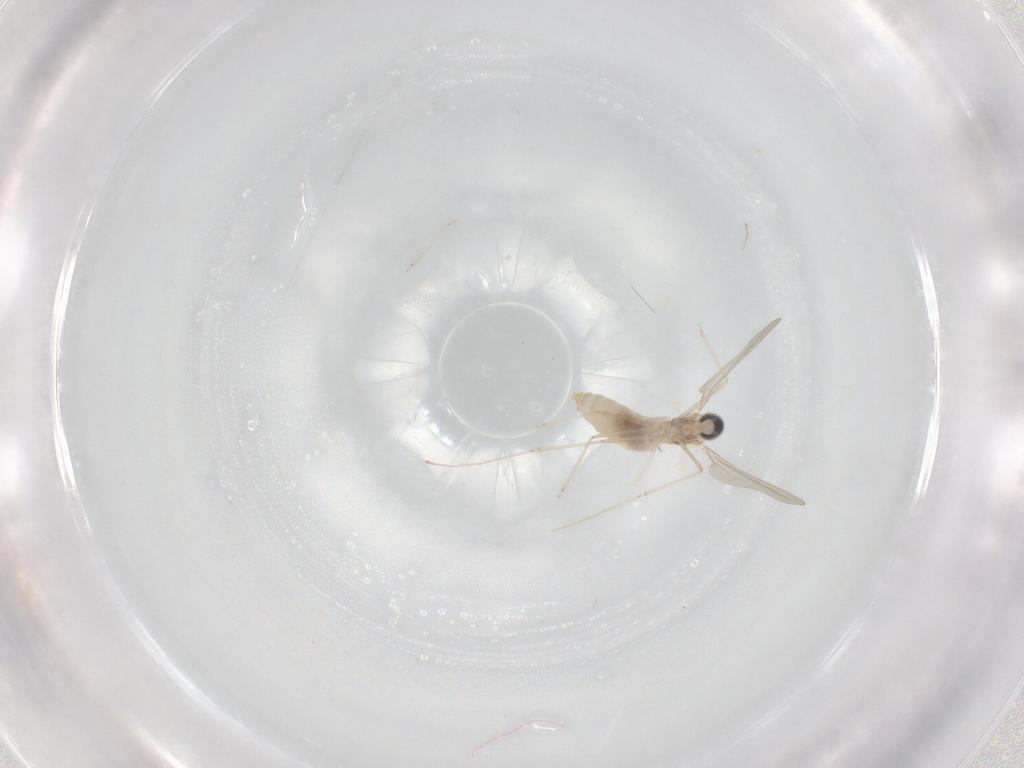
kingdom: Animalia
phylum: Arthropoda
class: Insecta
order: Diptera
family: Cecidomyiidae
